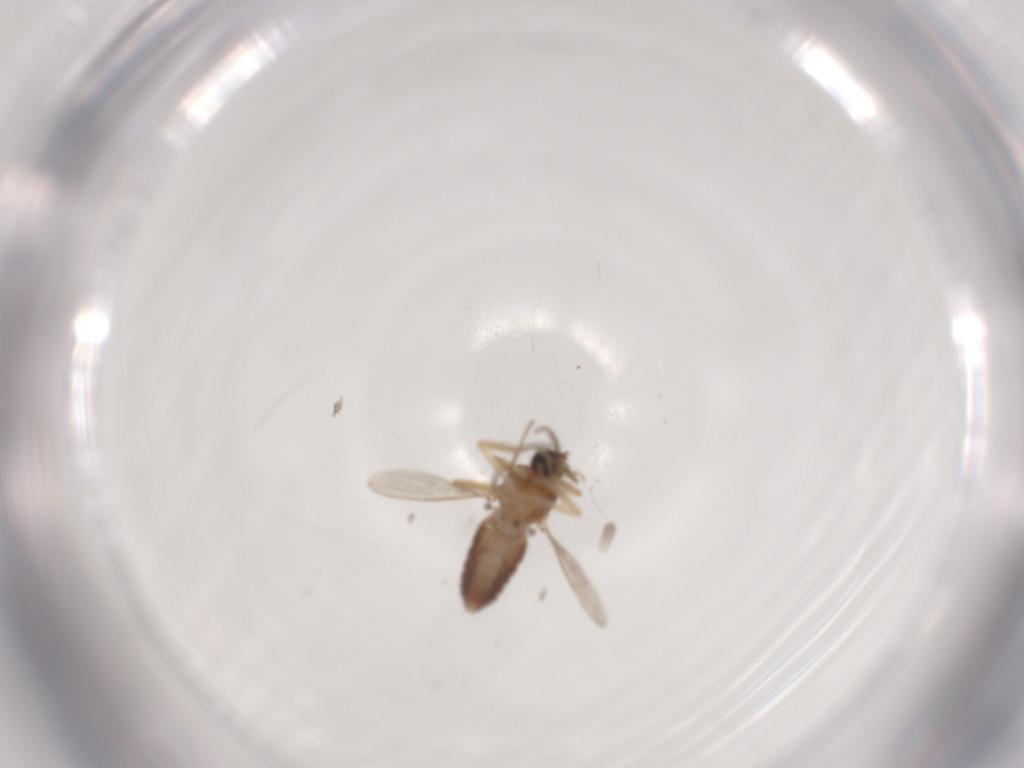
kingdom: Animalia
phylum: Arthropoda
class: Insecta
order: Diptera
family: Ceratopogonidae
